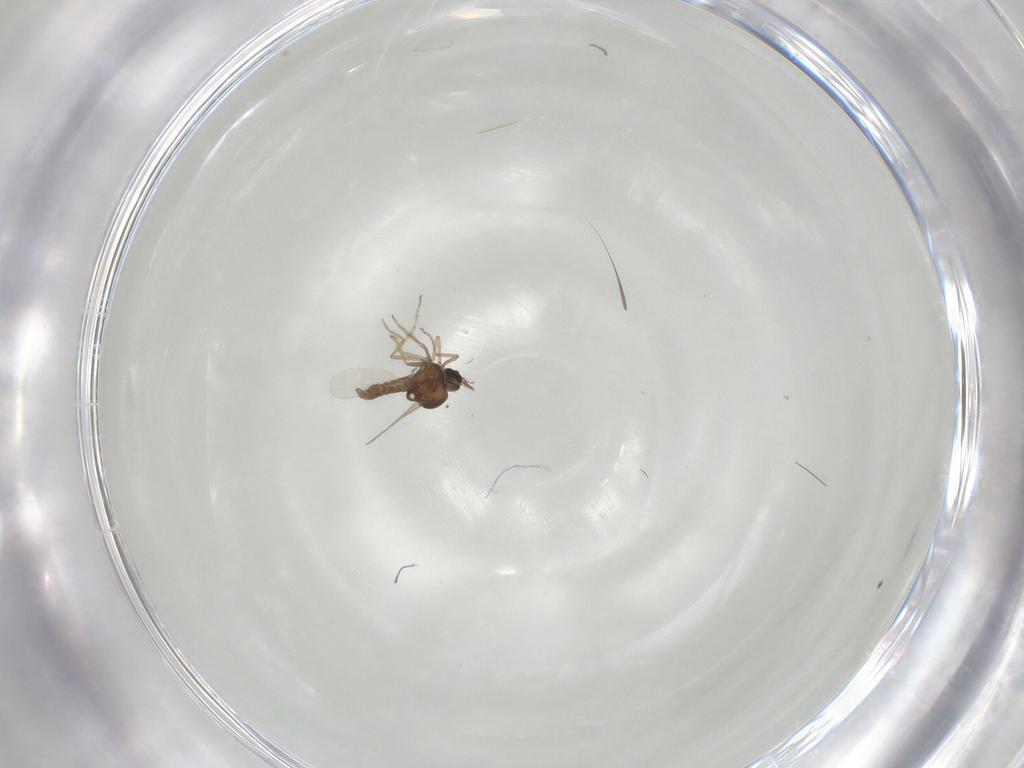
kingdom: Animalia
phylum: Arthropoda
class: Insecta
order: Diptera
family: Ceratopogonidae
